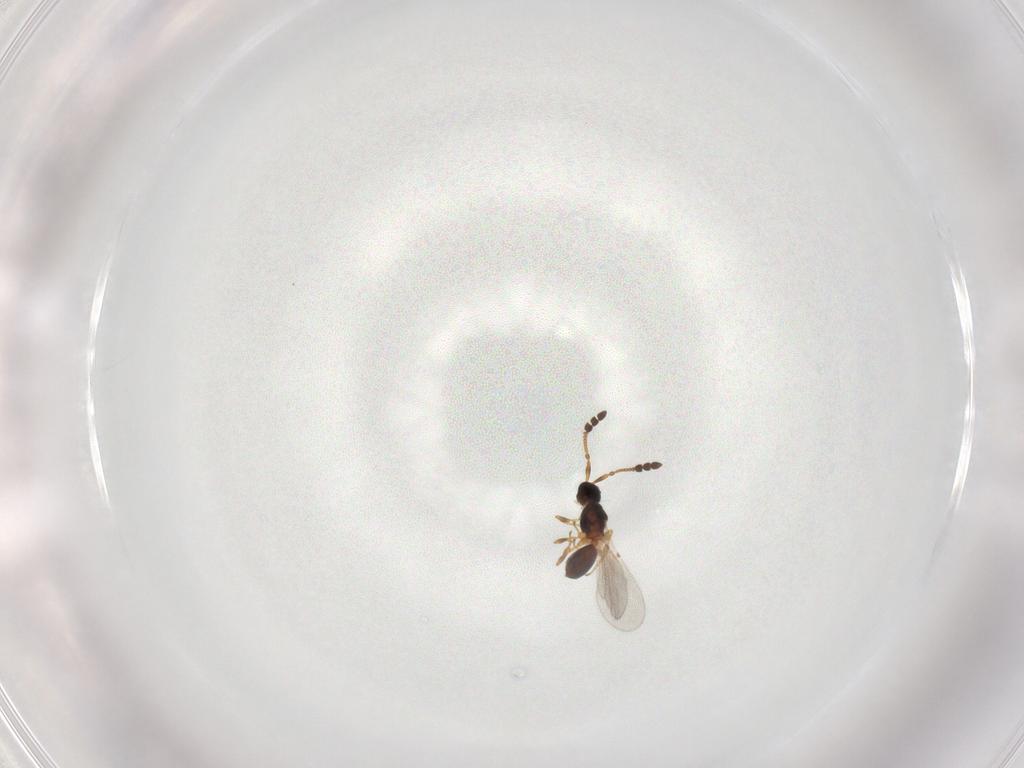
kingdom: Animalia
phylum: Arthropoda
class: Insecta
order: Hymenoptera
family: Diapriidae
